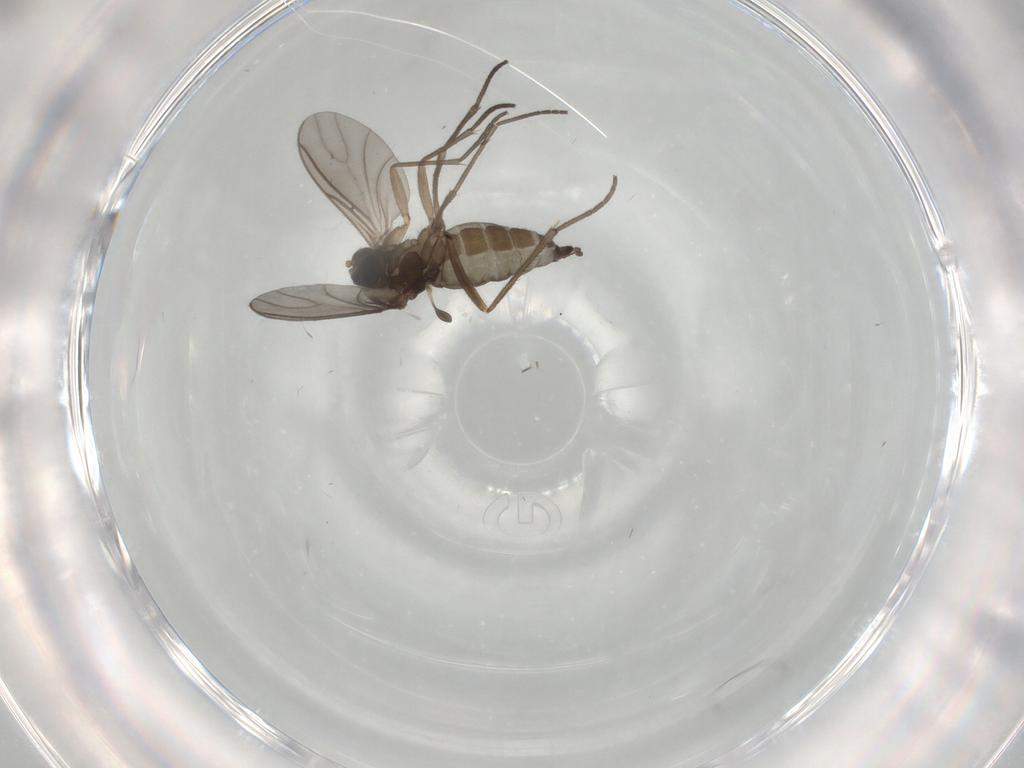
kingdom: Animalia
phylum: Arthropoda
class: Insecta
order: Diptera
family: Sciaridae
